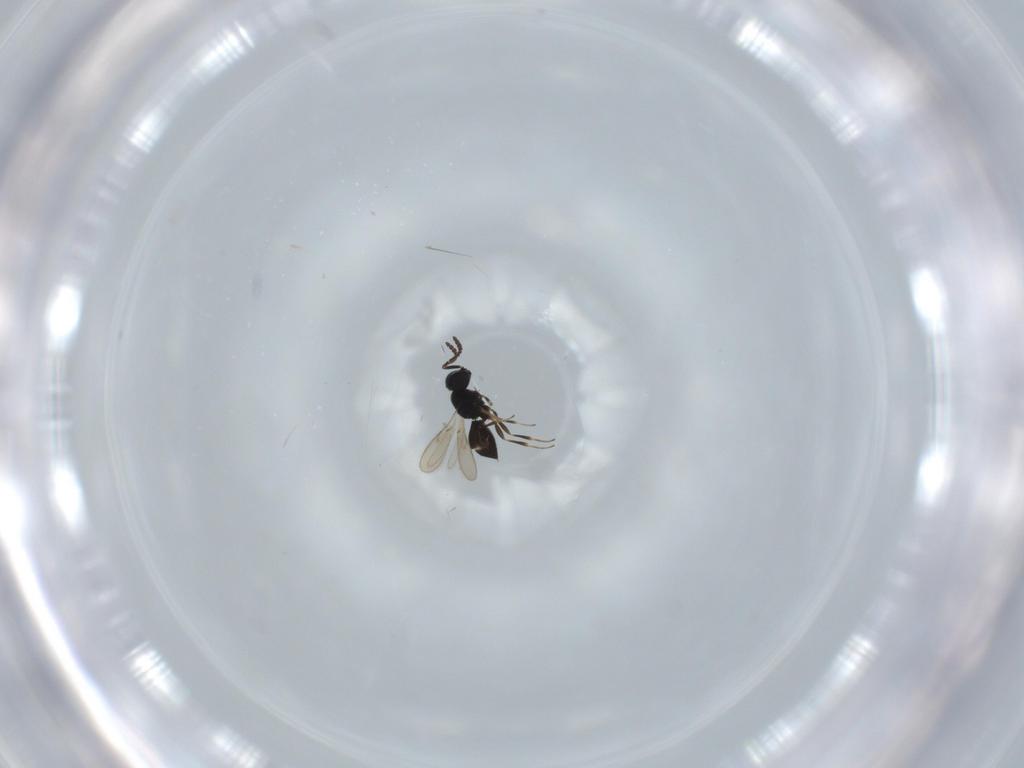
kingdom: Animalia
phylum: Arthropoda
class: Insecta
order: Hymenoptera
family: Scelionidae
